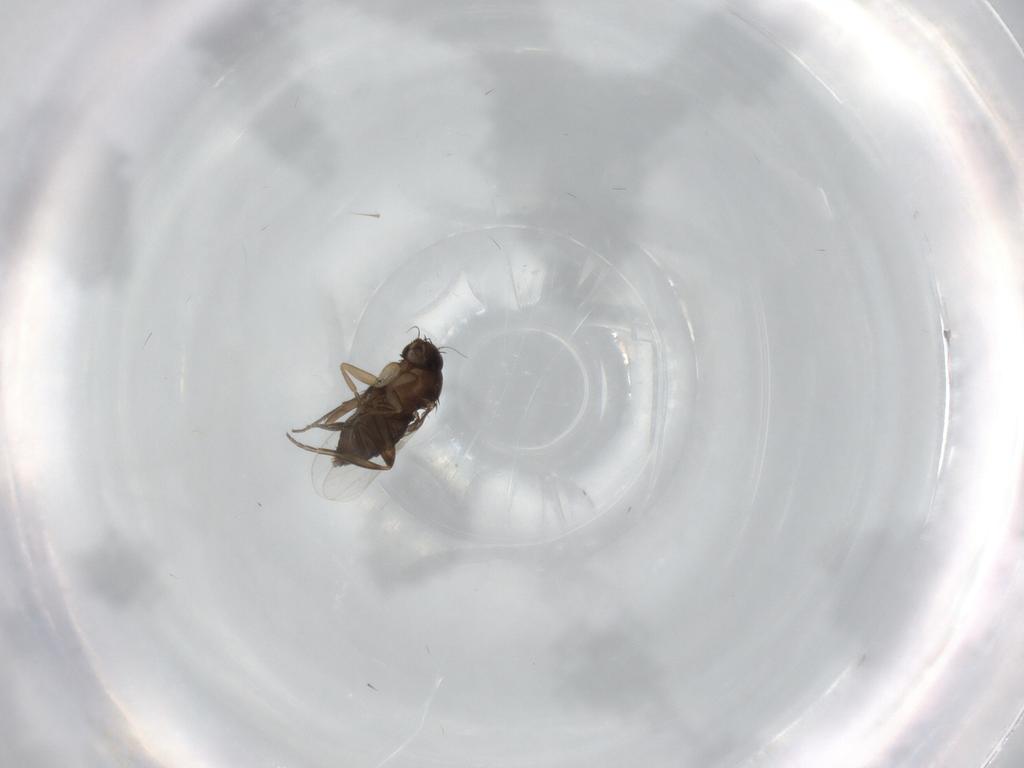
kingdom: Animalia
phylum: Arthropoda
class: Insecta
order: Diptera
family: Phoridae
